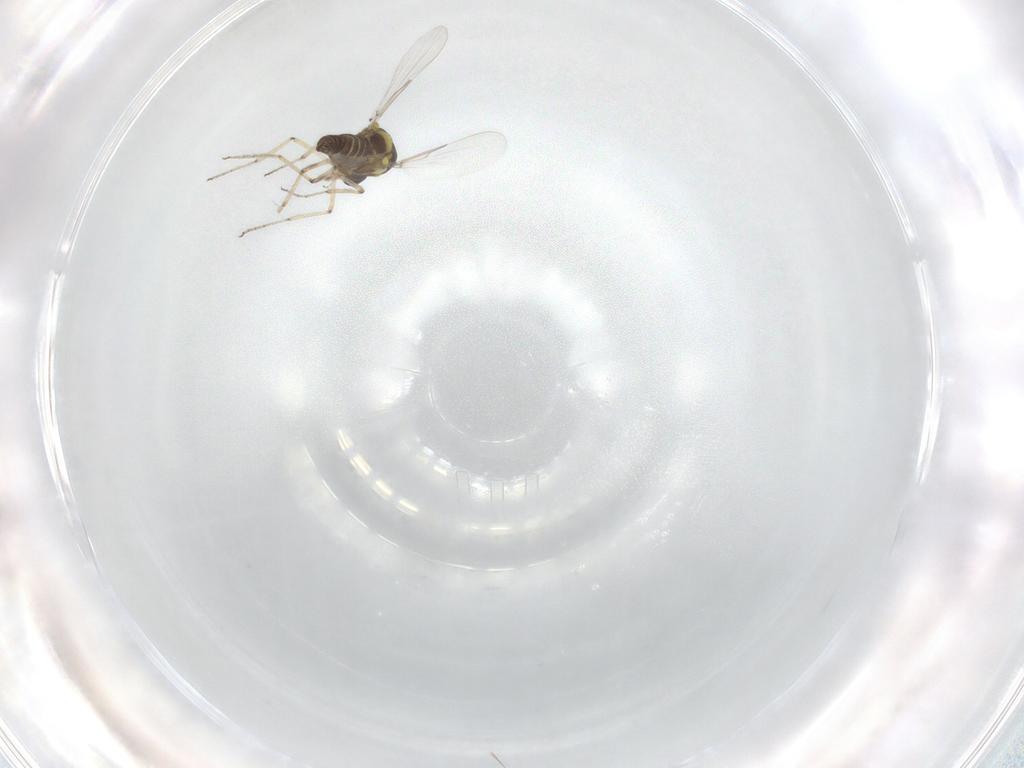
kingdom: Animalia
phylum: Arthropoda
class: Insecta
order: Diptera
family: Ceratopogonidae
